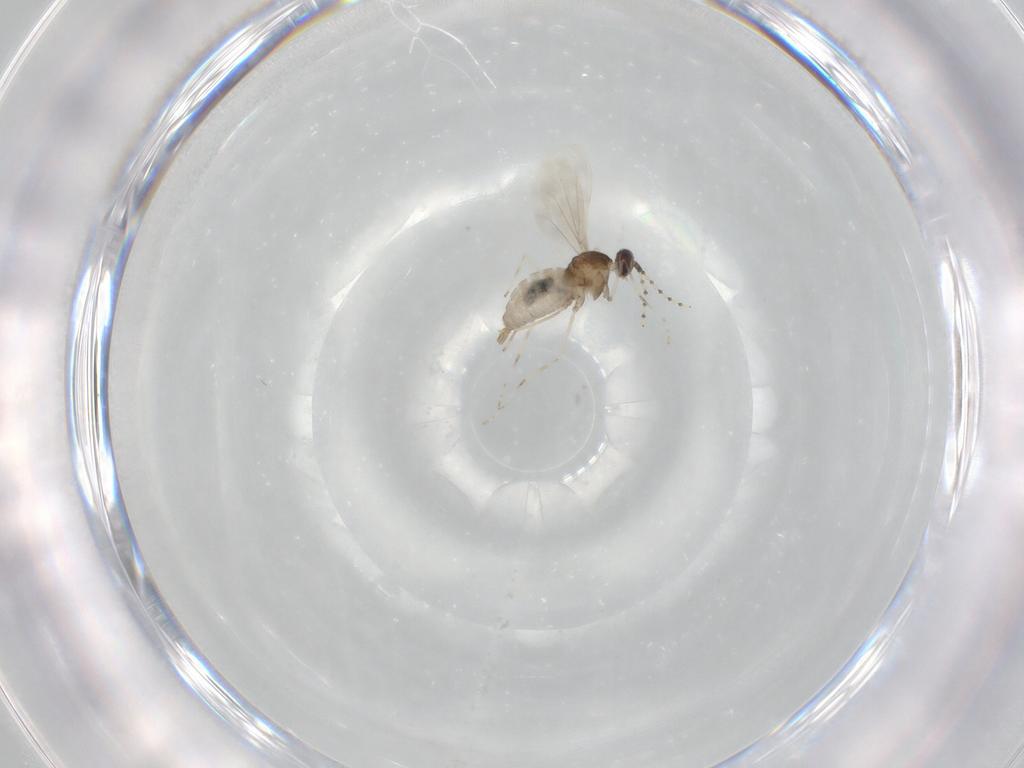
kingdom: Animalia
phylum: Arthropoda
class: Insecta
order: Diptera
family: Cecidomyiidae
